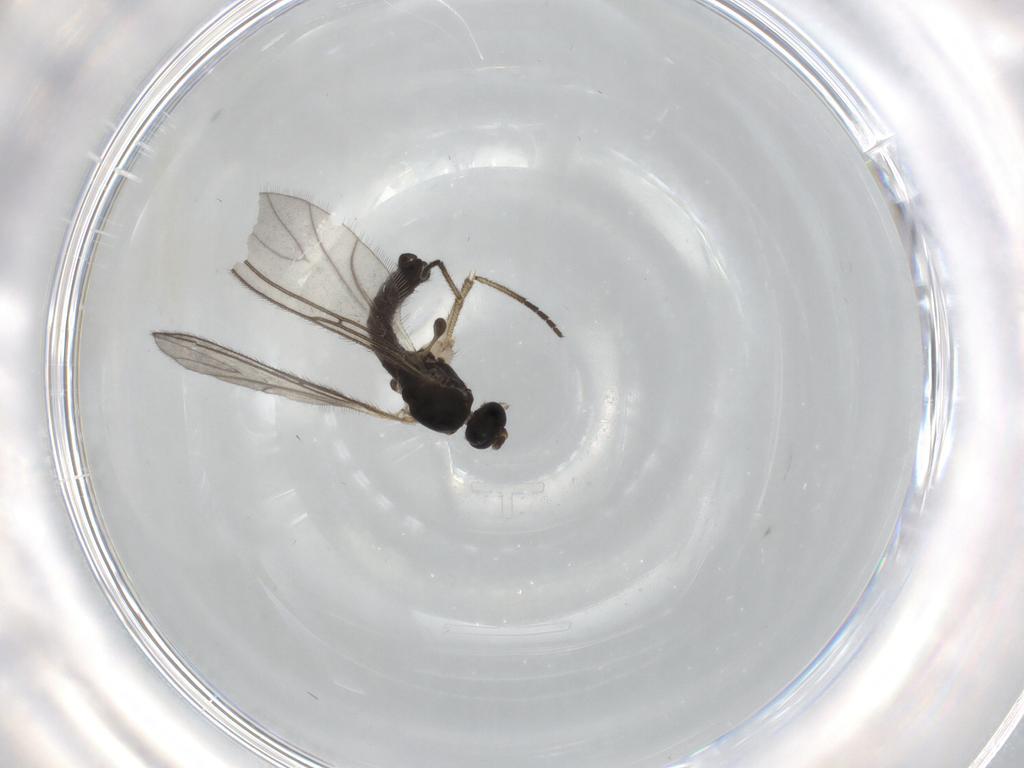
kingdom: Animalia
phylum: Arthropoda
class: Insecta
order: Diptera
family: Sciaridae
